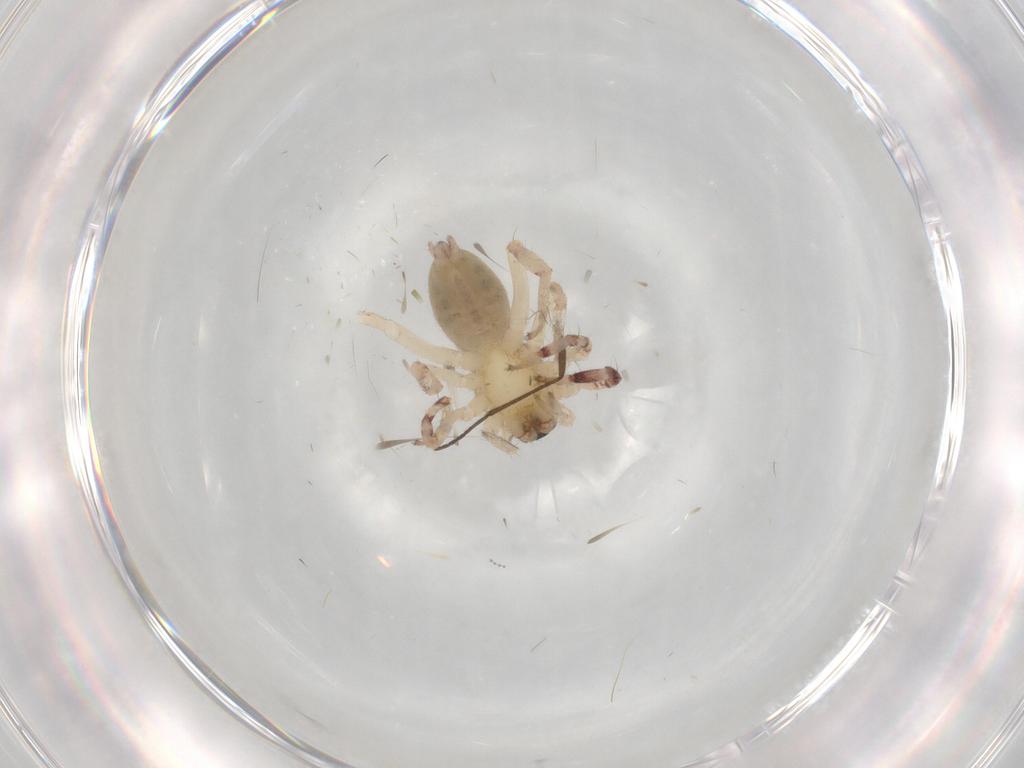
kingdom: Animalia
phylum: Arthropoda
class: Arachnida
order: Araneae
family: Anyphaenidae
